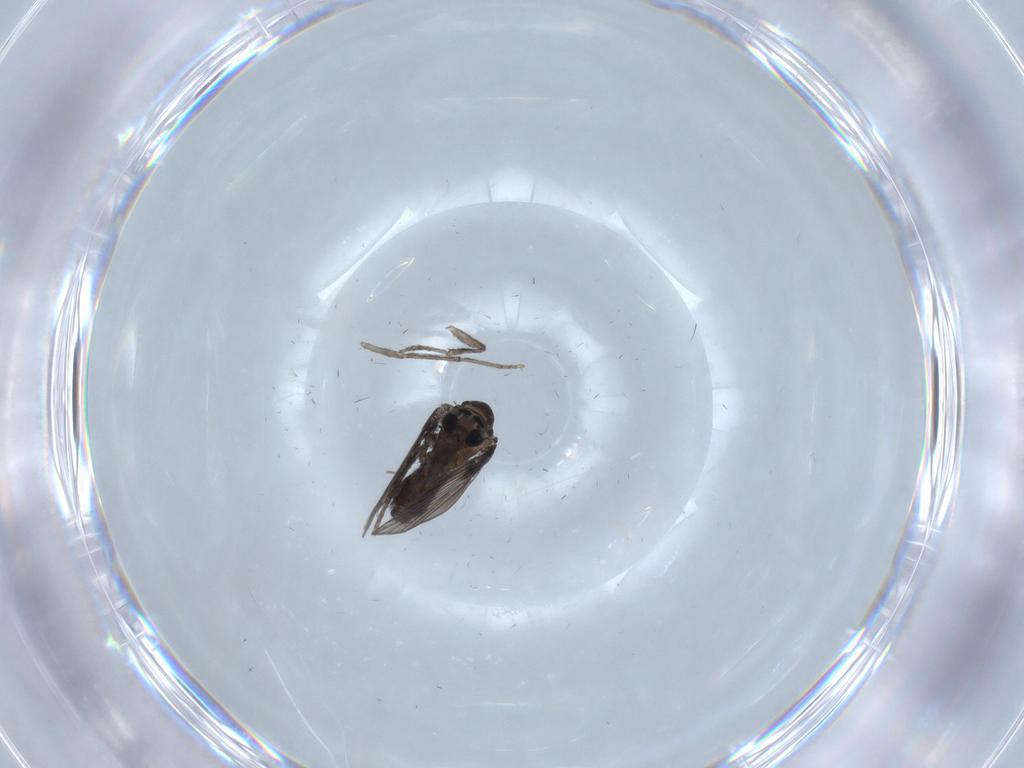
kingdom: Animalia
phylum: Arthropoda
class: Insecta
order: Diptera
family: Psychodidae
